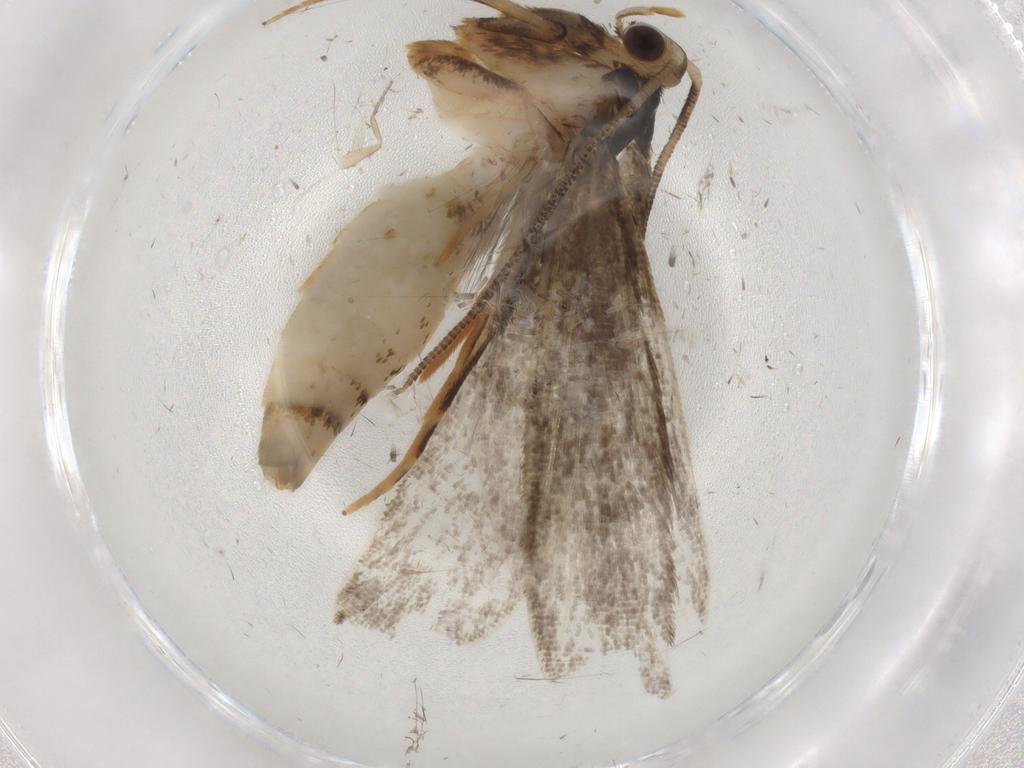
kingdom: Animalia
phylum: Arthropoda
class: Insecta
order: Lepidoptera
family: Tineidae
